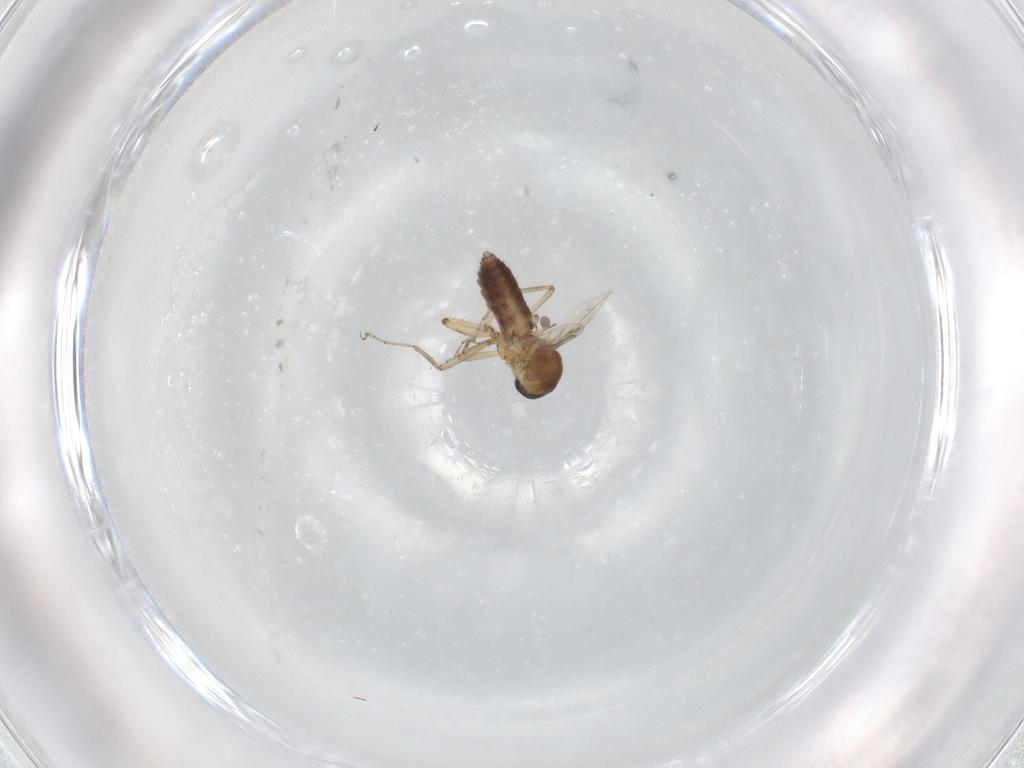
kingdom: Animalia
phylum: Arthropoda
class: Insecta
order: Diptera
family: Ceratopogonidae
